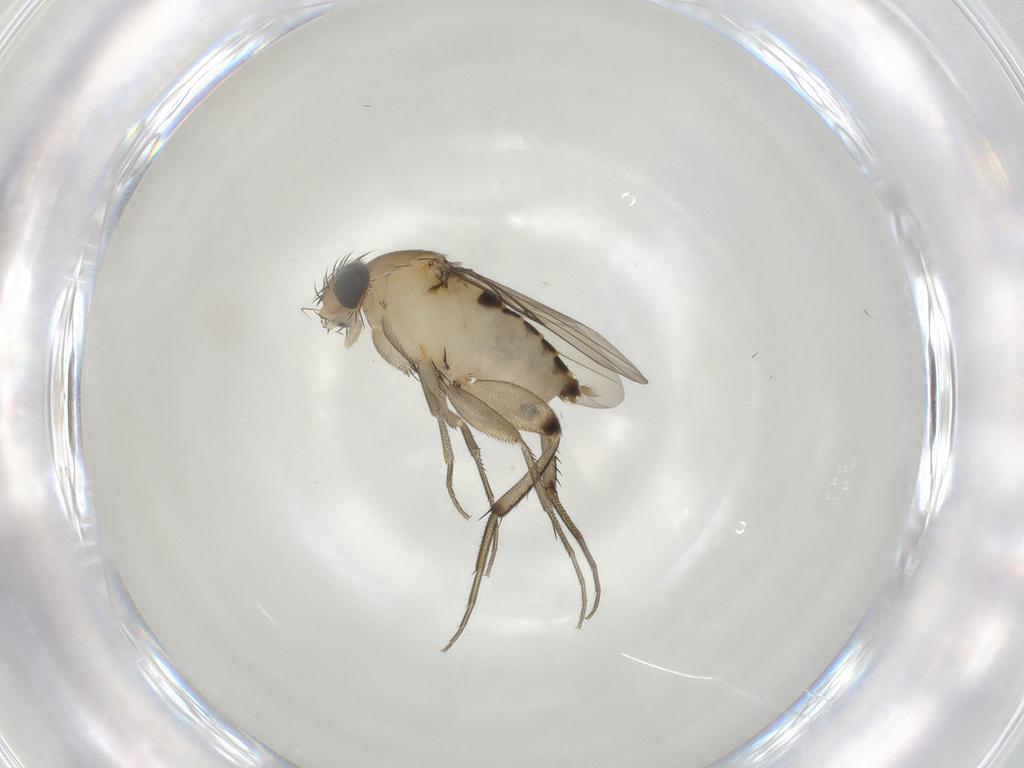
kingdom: Animalia
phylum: Arthropoda
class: Insecta
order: Diptera
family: Phoridae
